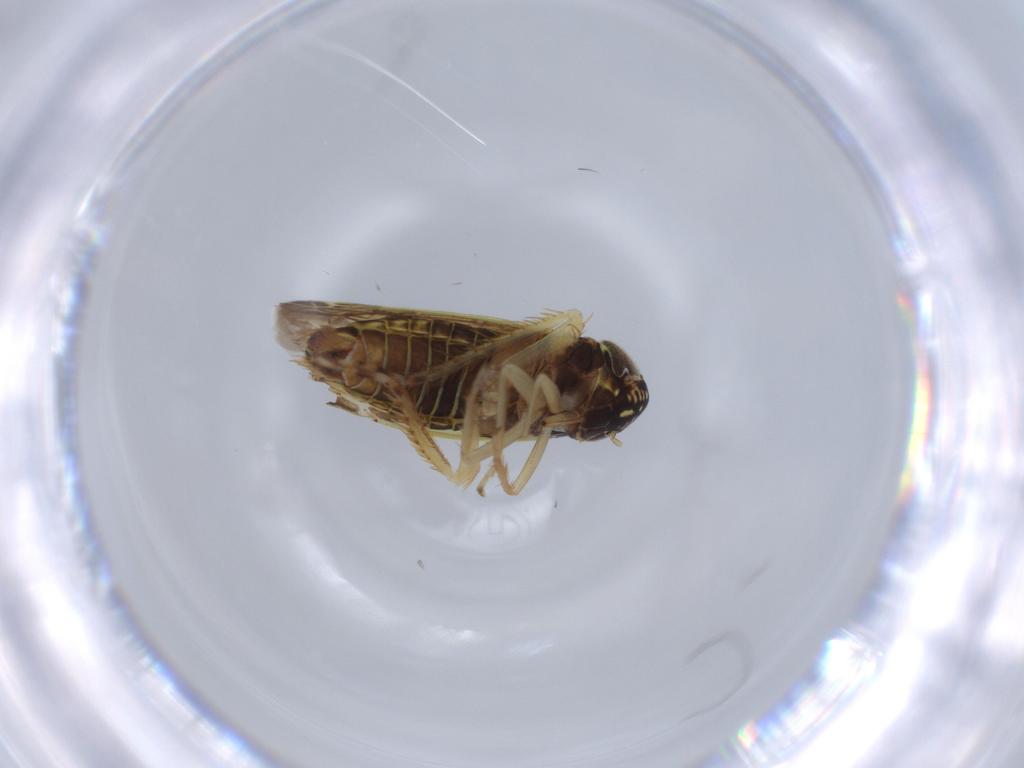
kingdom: Animalia
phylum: Arthropoda
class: Insecta
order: Hemiptera
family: Cicadellidae
